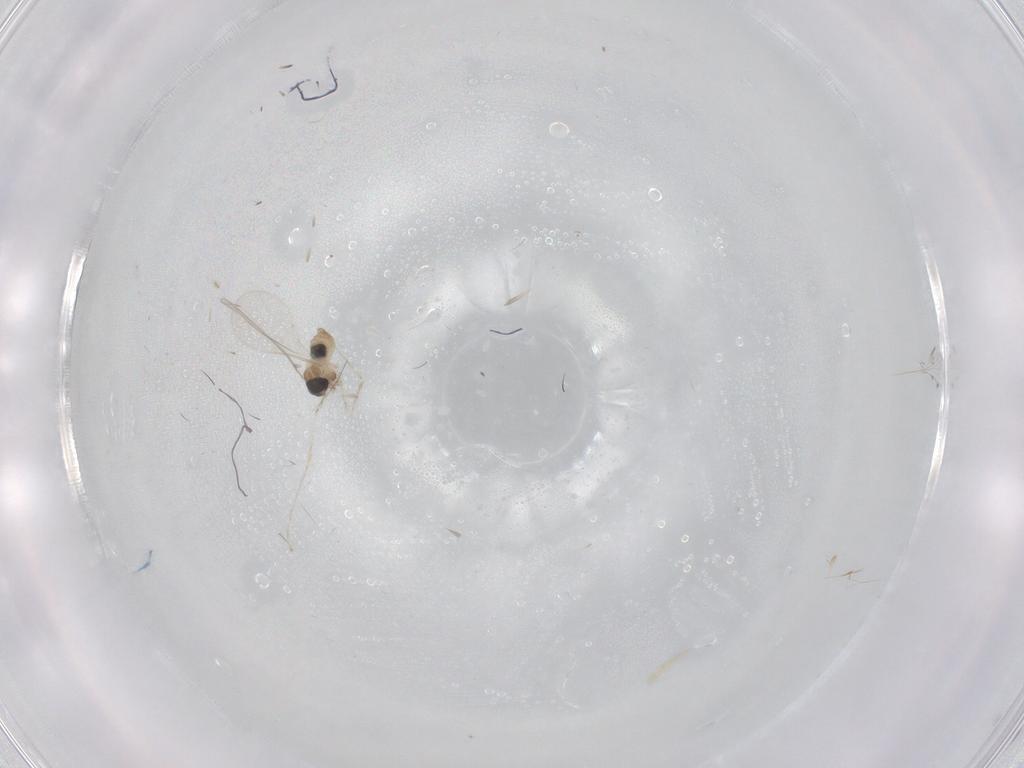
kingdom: Animalia
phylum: Arthropoda
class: Insecta
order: Diptera
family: Cecidomyiidae
